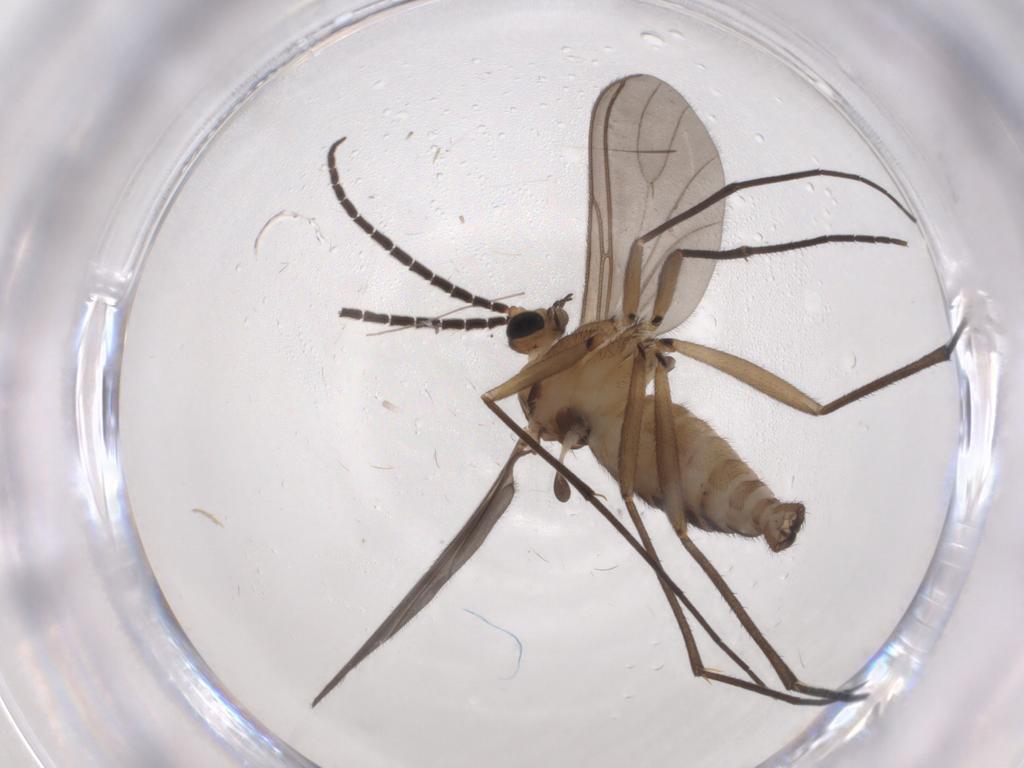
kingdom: Animalia
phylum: Arthropoda
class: Insecta
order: Diptera
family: Sciaridae
